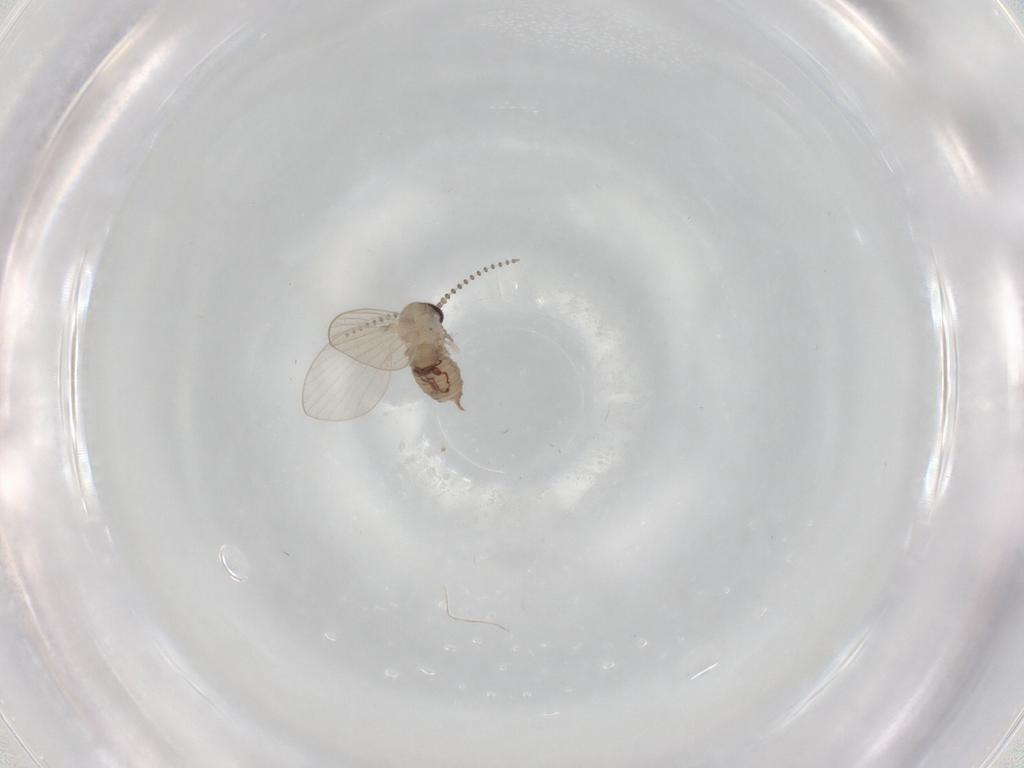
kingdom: Animalia
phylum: Arthropoda
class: Insecta
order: Diptera
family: Psychodidae
